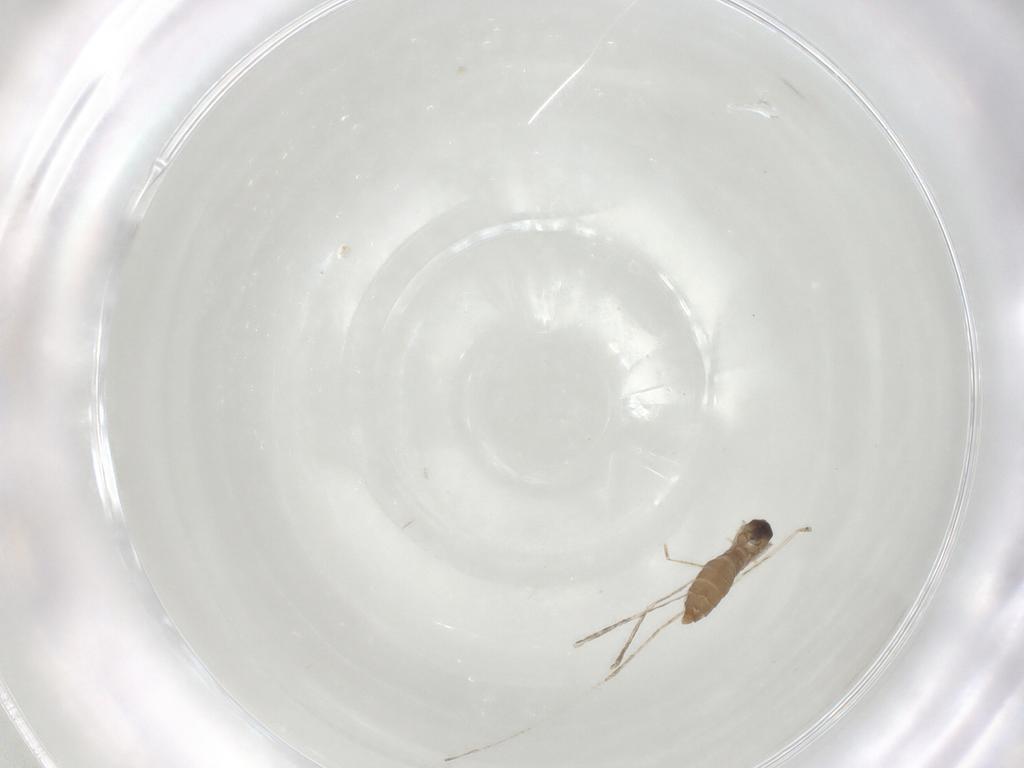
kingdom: Animalia
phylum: Arthropoda
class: Insecta
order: Diptera
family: Cecidomyiidae
